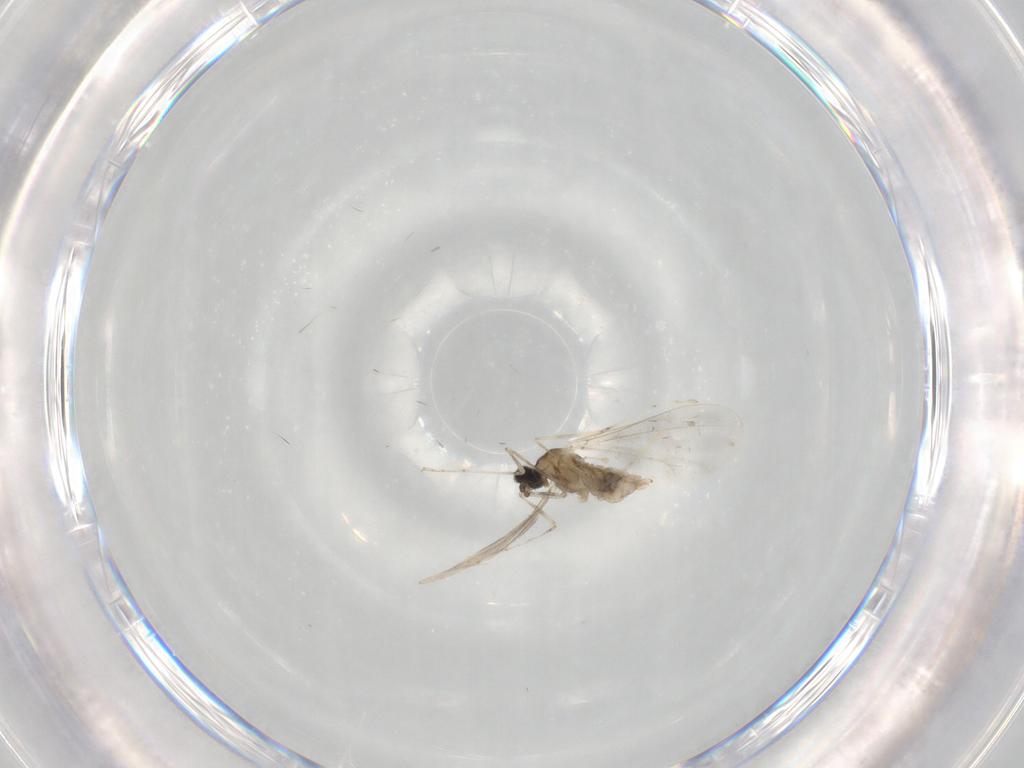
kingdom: Animalia
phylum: Arthropoda
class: Insecta
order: Diptera
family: Cecidomyiidae
